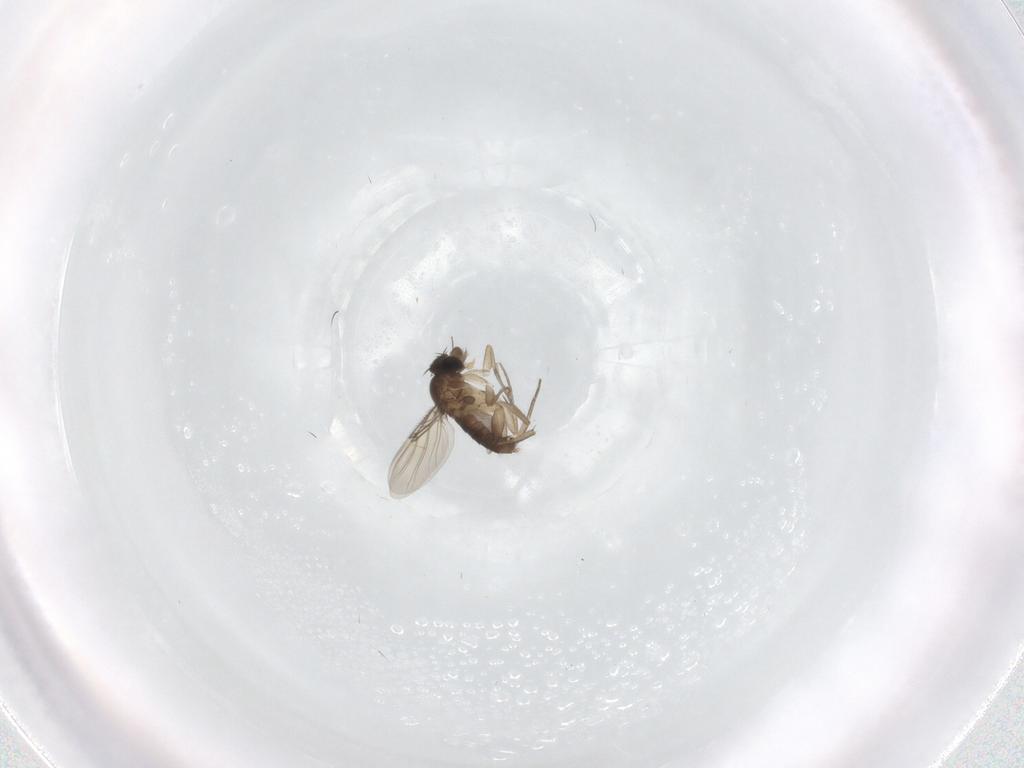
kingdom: Animalia
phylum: Arthropoda
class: Insecta
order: Diptera
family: Phoridae
